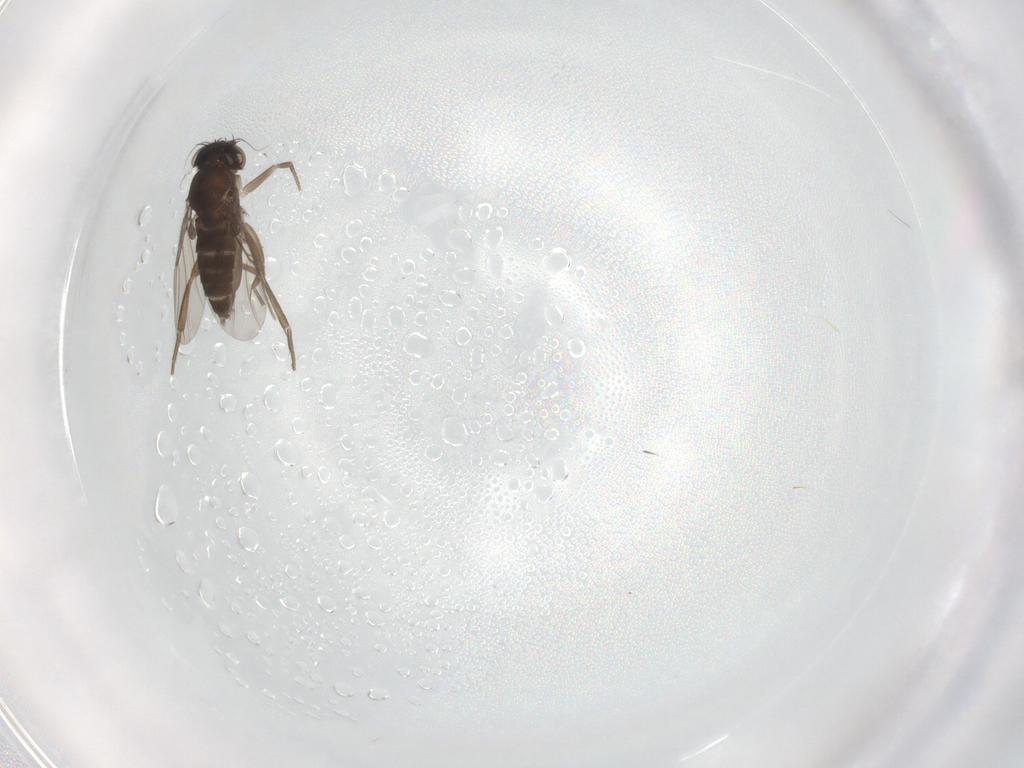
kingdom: Animalia
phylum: Arthropoda
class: Insecta
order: Diptera
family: Phoridae
